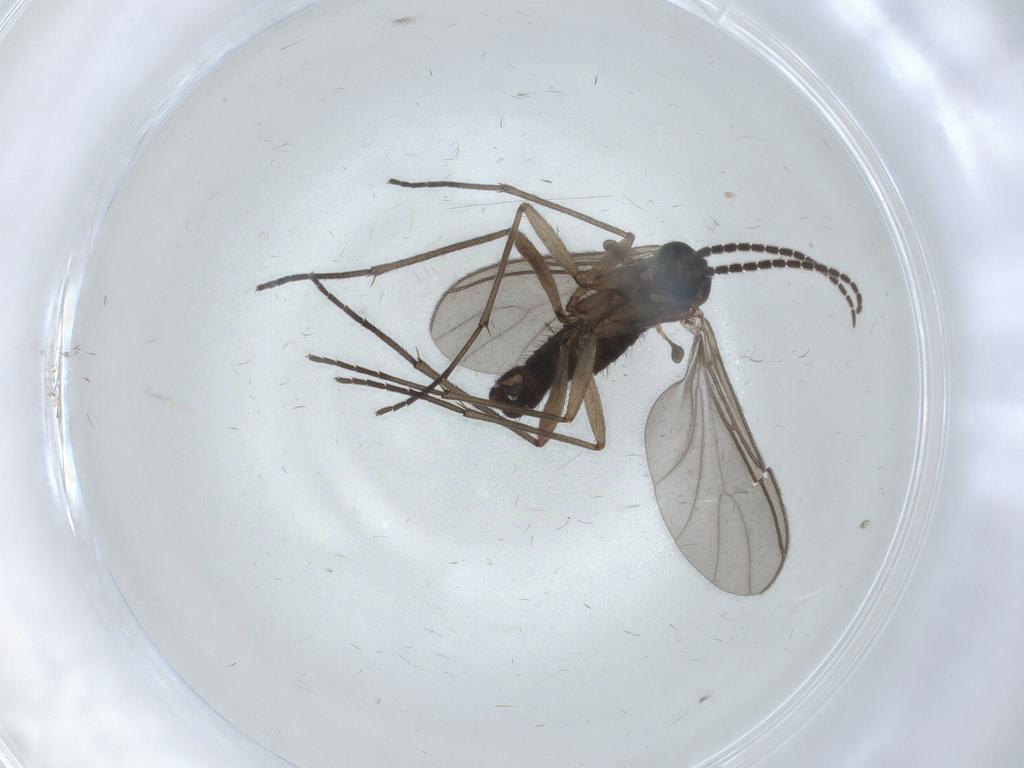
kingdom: Animalia
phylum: Arthropoda
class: Insecta
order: Diptera
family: Sciaridae
